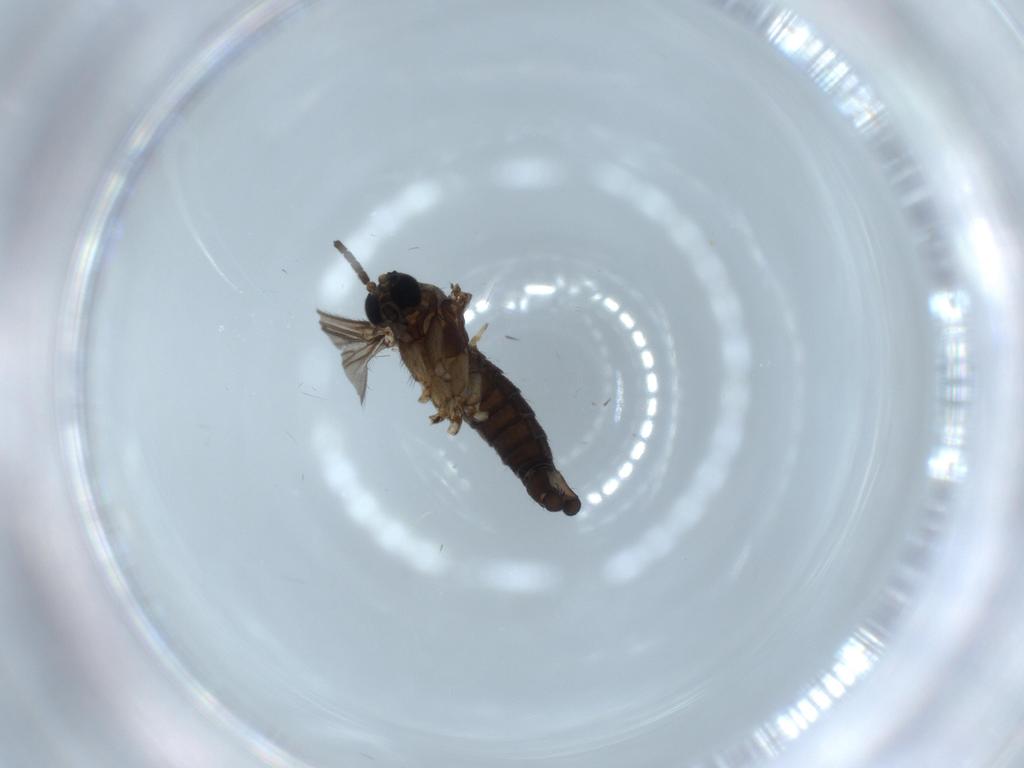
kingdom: Animalia
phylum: Arthropoda
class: Insecta
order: Diptera
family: Sciaridae
